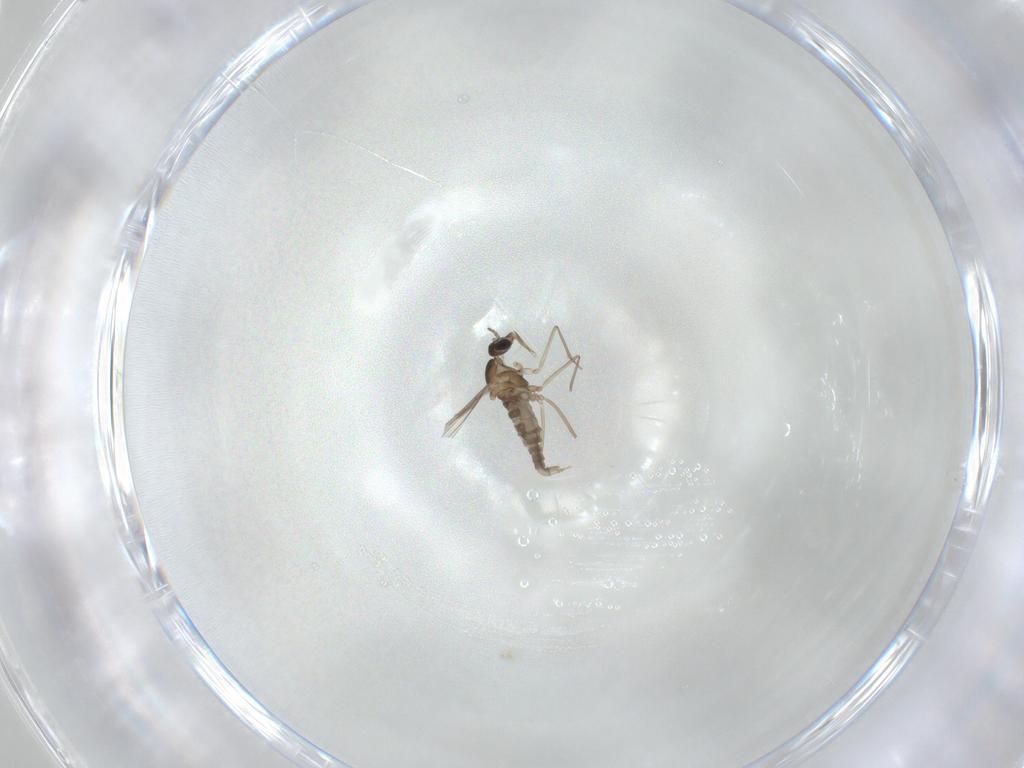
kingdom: Animalia
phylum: Arthropoda
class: Insecta
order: Diptera
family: Cecidomyiidae
